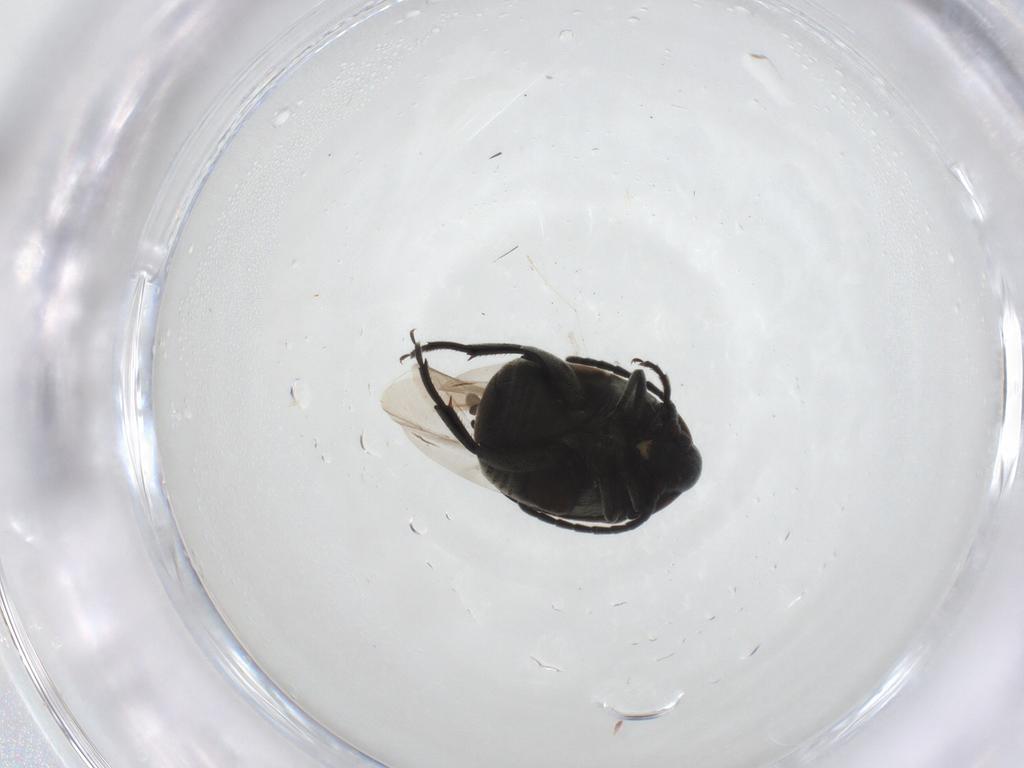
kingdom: Animalia
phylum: Arthropoda
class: Insecta
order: Coleoptera
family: Chrysomelidae
